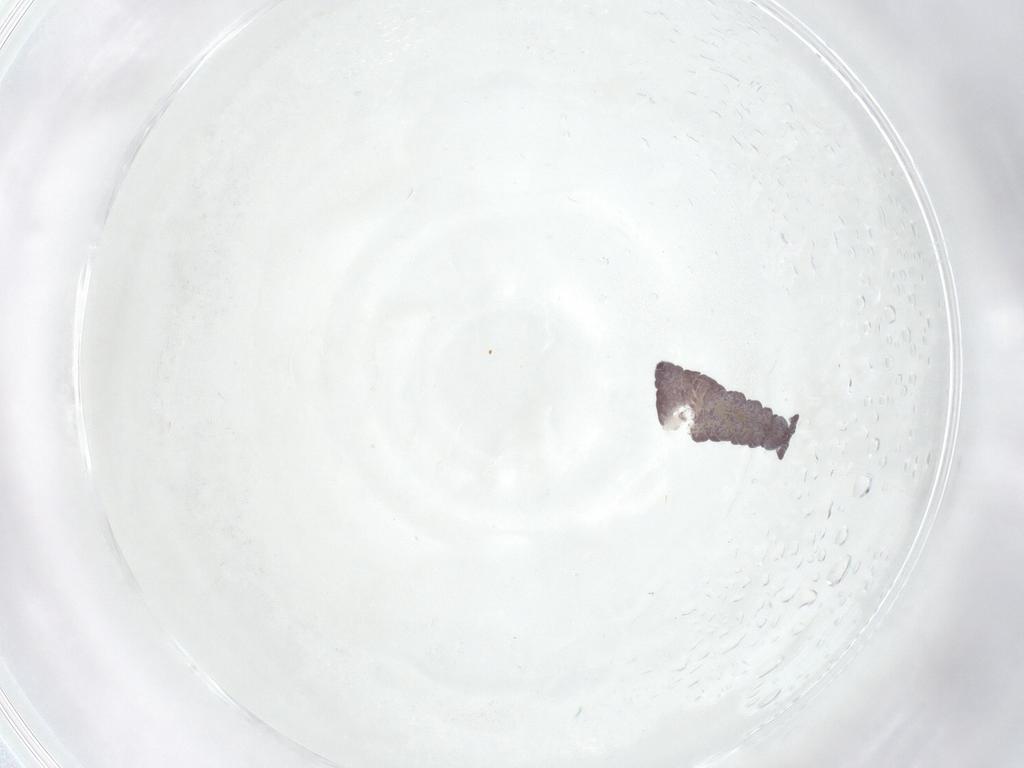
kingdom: Animalia
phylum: Arthropoda
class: Collembola
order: Poduromorpha
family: Hypogastruridae
